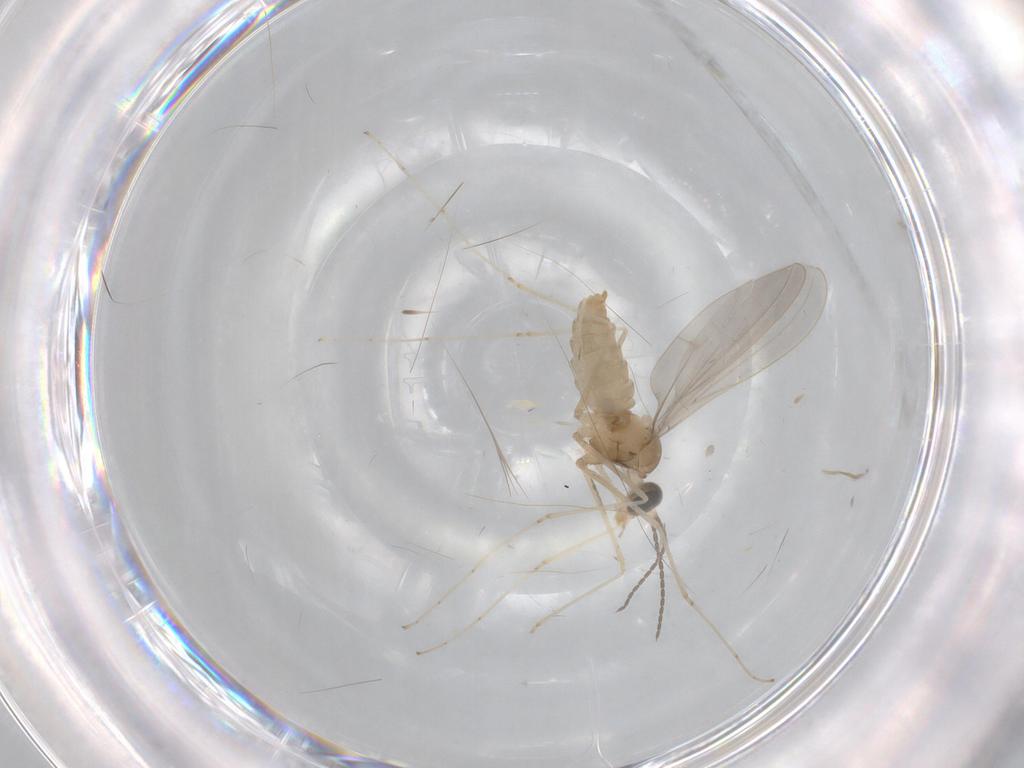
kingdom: Animalia
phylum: Arthropoda
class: Insecta
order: Diptera
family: Cecidomyiidae
